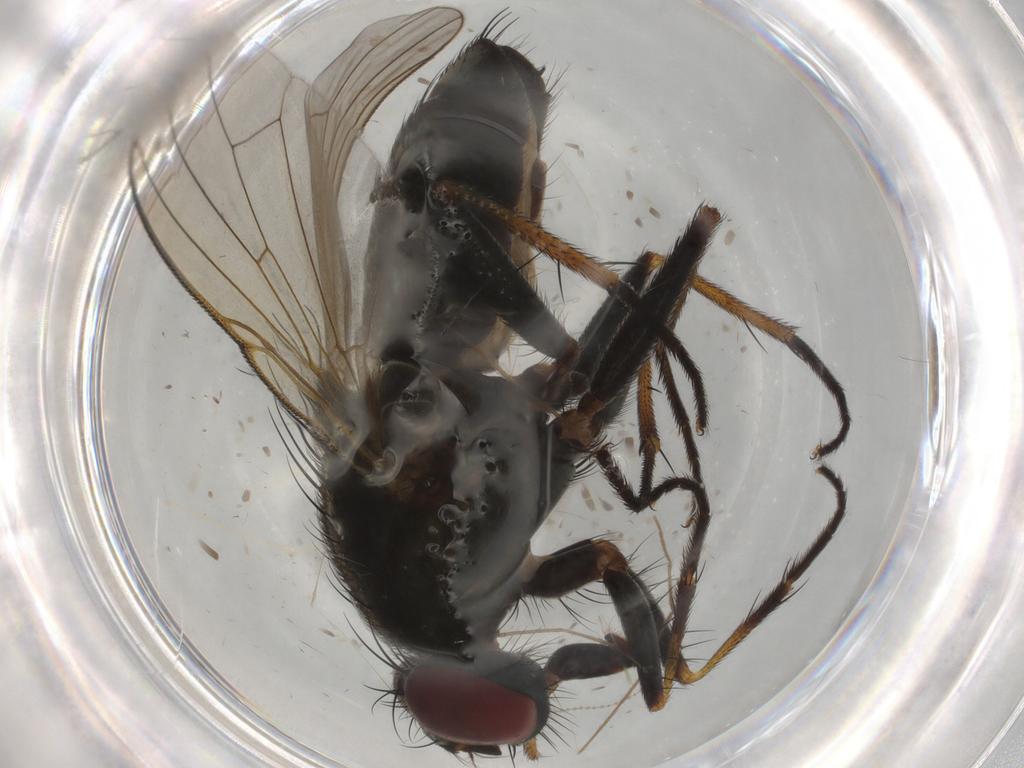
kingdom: Animalia
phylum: Arthropoda
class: Insecta
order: Diptera
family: Muscidae
